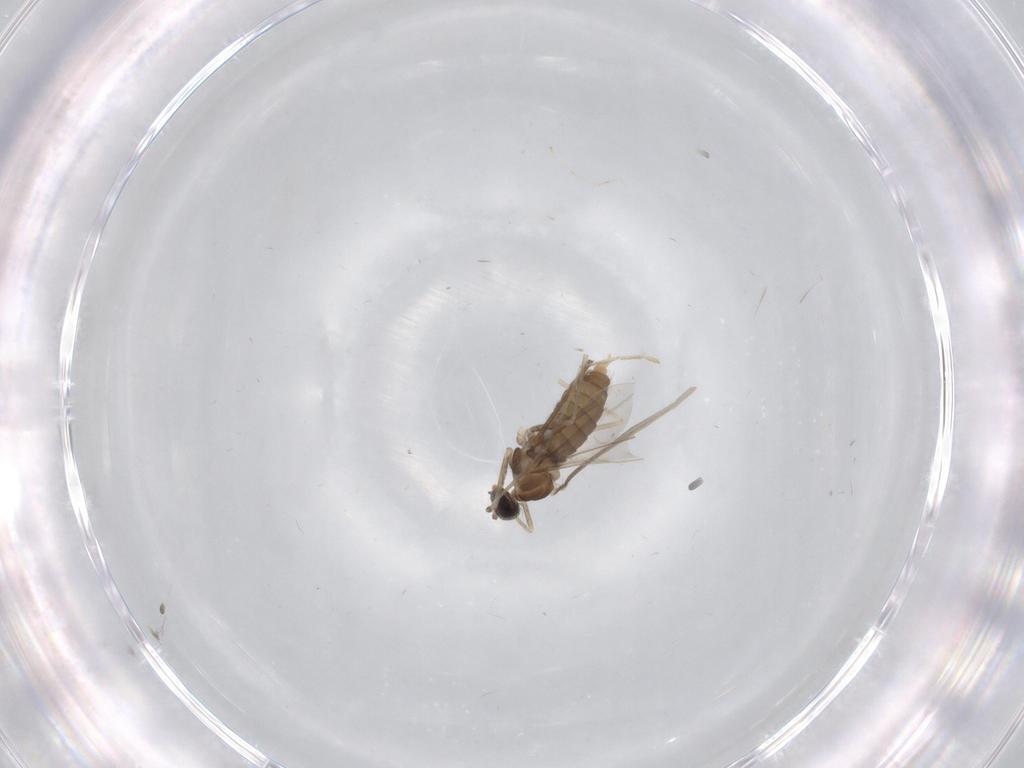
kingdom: Animalia
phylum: Arthropoda
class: Insecta
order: Diptera
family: Cecidomyiidae
